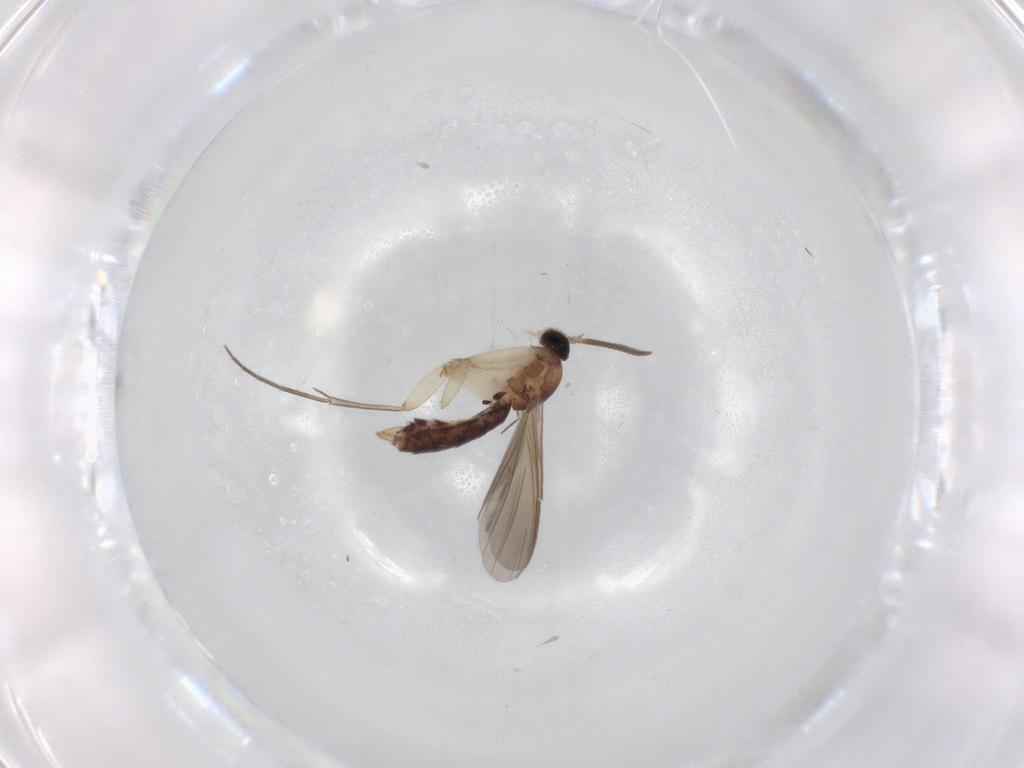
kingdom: Animalia
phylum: Arthropoda
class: Insecta
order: Diptera
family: Mycetophilidae
